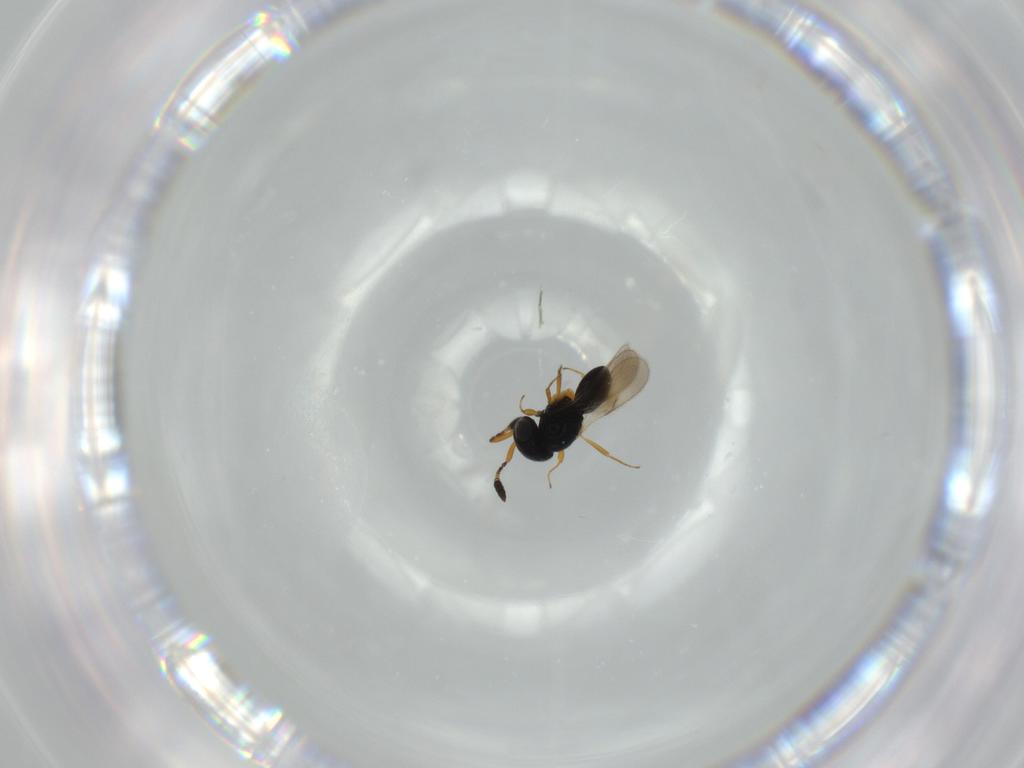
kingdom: Animalia
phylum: Arthropoda
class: Insecta
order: Hymenoptera
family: Scelionidae
